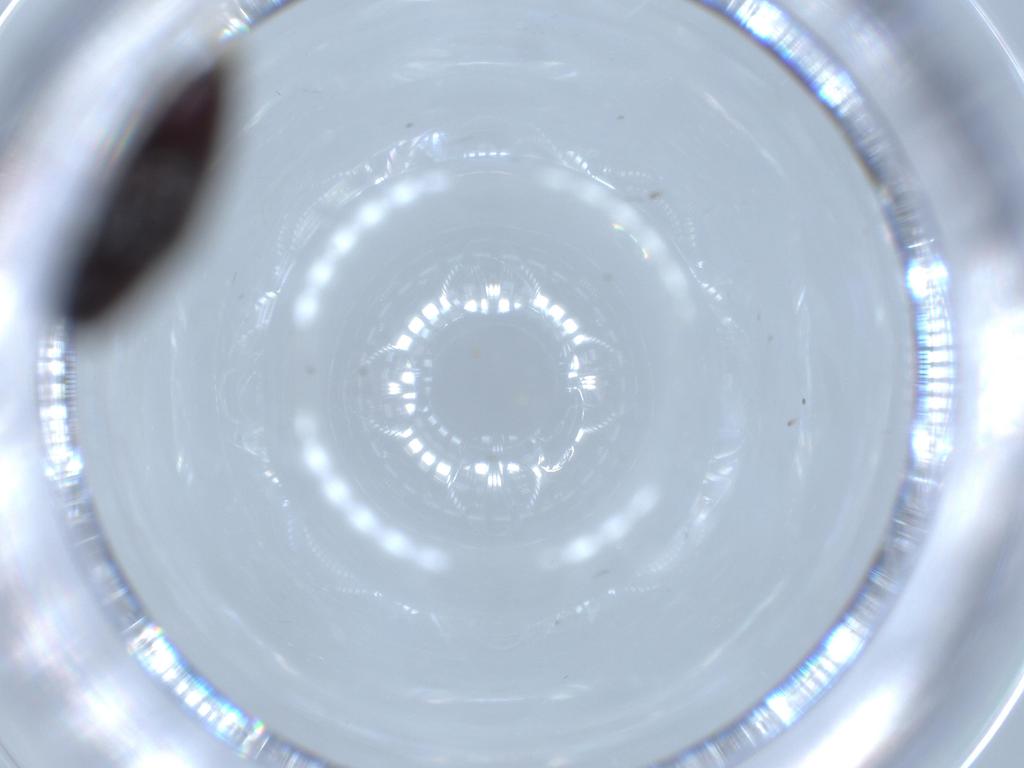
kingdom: Animalia
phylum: Arthropoda
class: Insecta
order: Coleoptera
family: Throscidae
